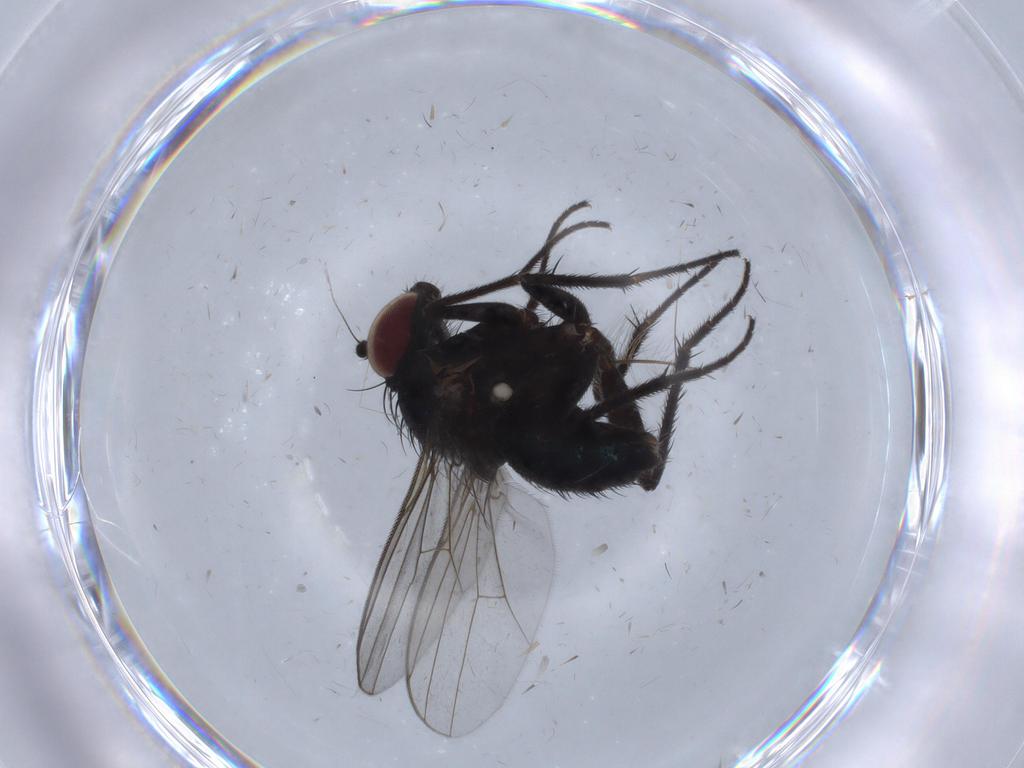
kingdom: Animalia
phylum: Arthropoda
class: Insecta
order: Diptera
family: Dolichopodidae
